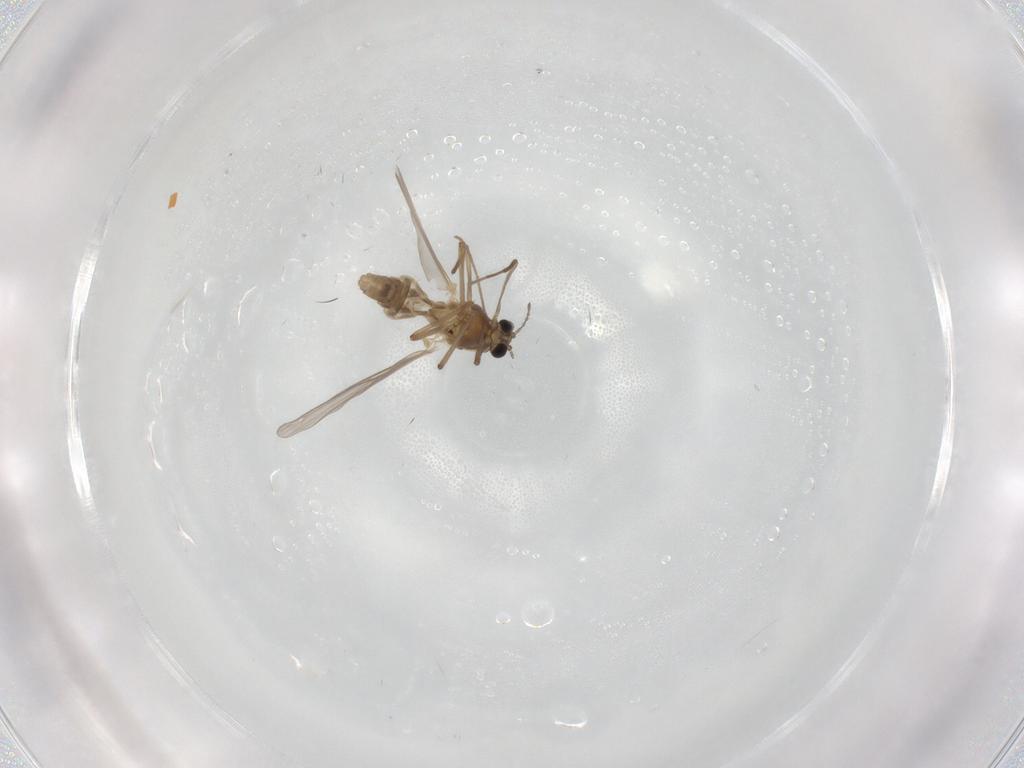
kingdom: Animalia
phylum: Arthropoda
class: Insecta
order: Diptera
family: Chironomidae
